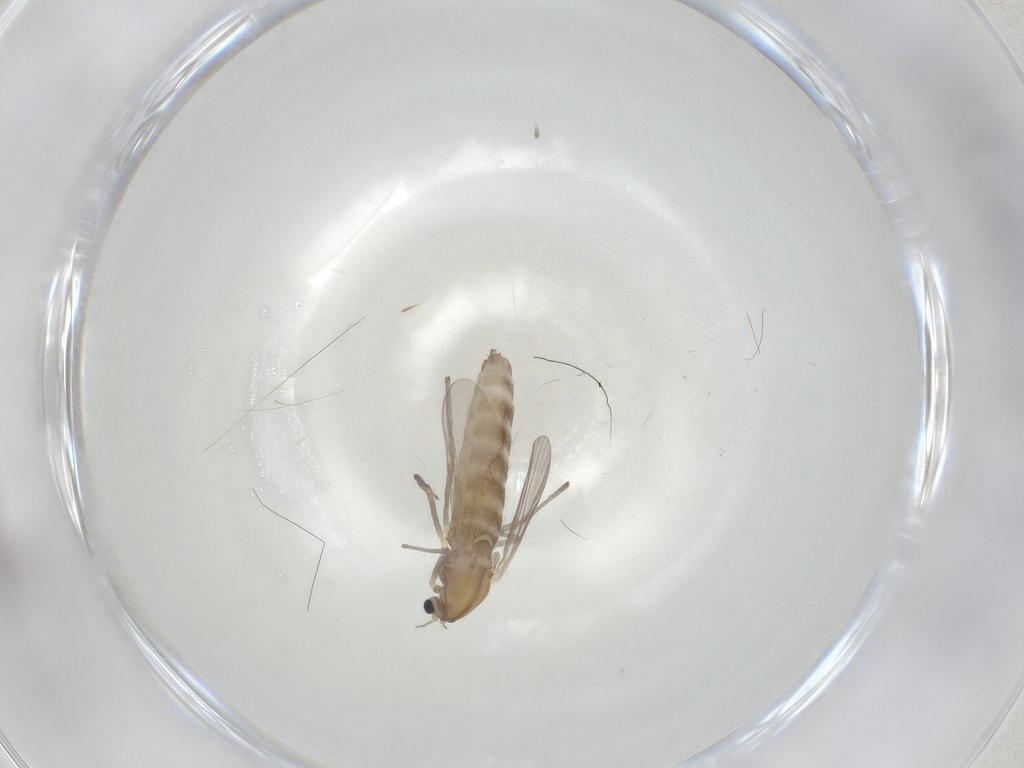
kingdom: Animalia
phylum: Arthropoda
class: Insecta
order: Diptera
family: Chironomidae
